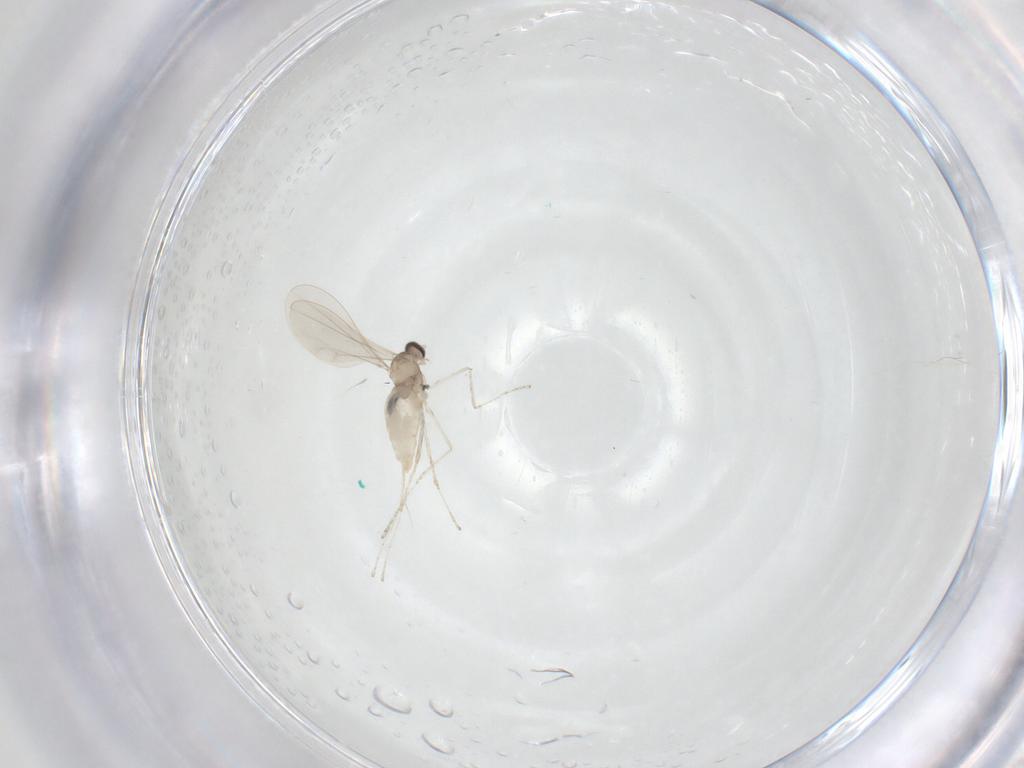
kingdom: Animalia
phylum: Arthropoda
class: Insecta
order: Diptera
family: Cecidomyiidae
